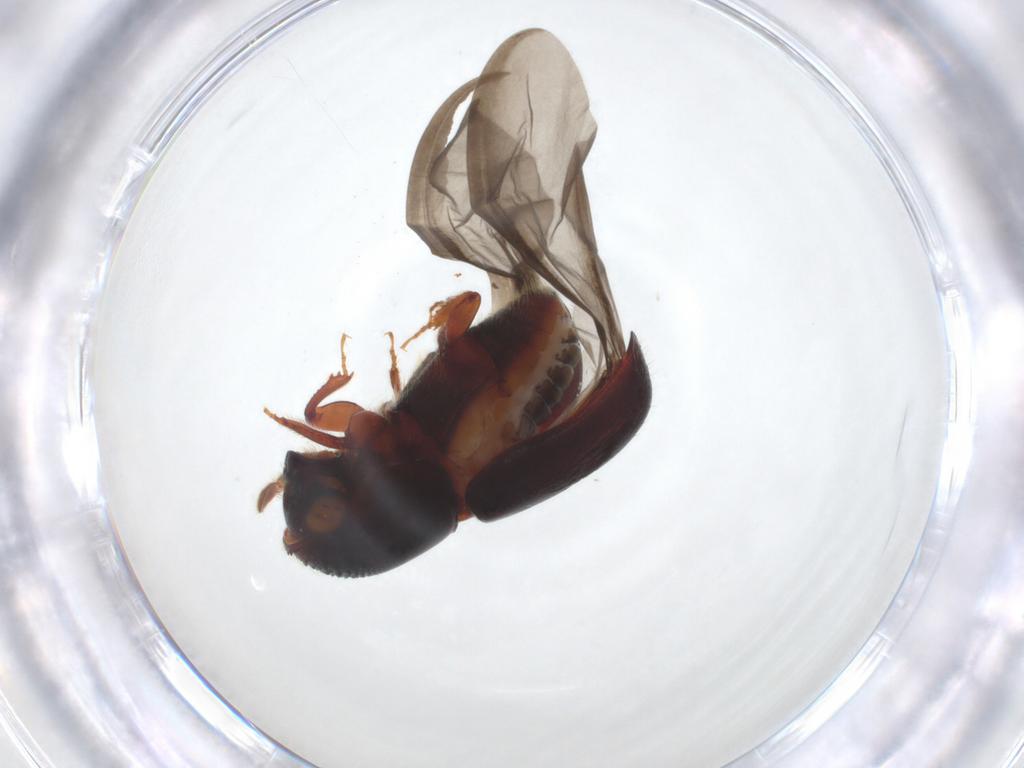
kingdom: Animalia
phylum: Arthropoda
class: Insecta
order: Coleoptera
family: Curculionidae
